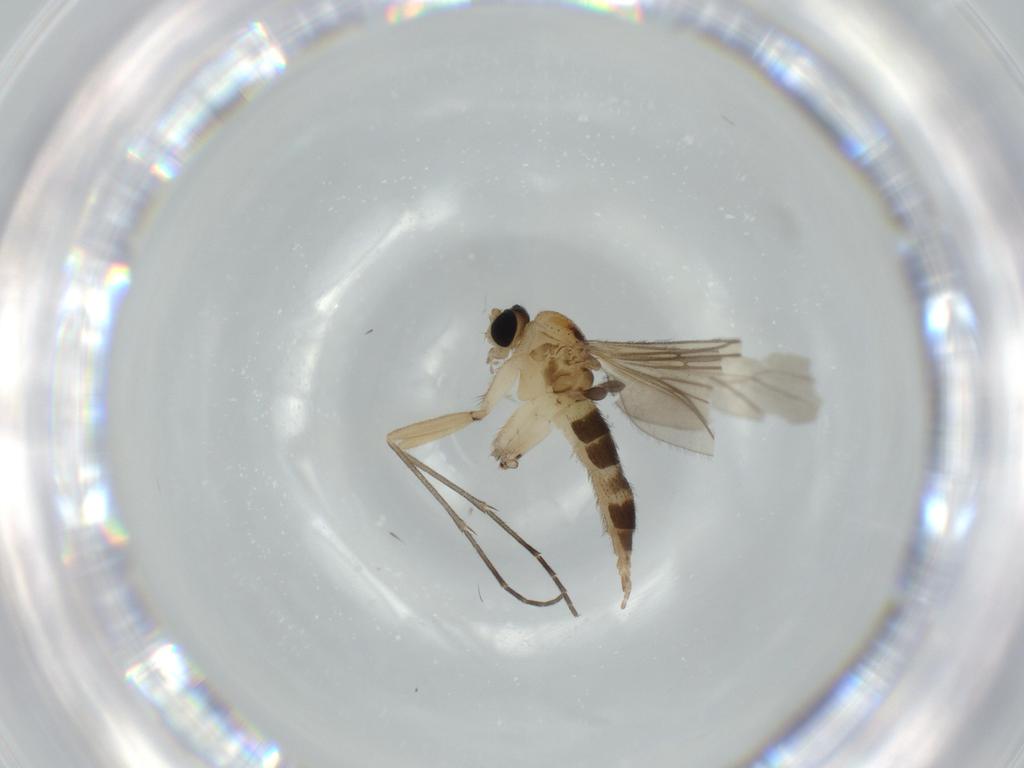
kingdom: Animalia
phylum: Arthropoda
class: Insecta
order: Diptera
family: Sciaridae
